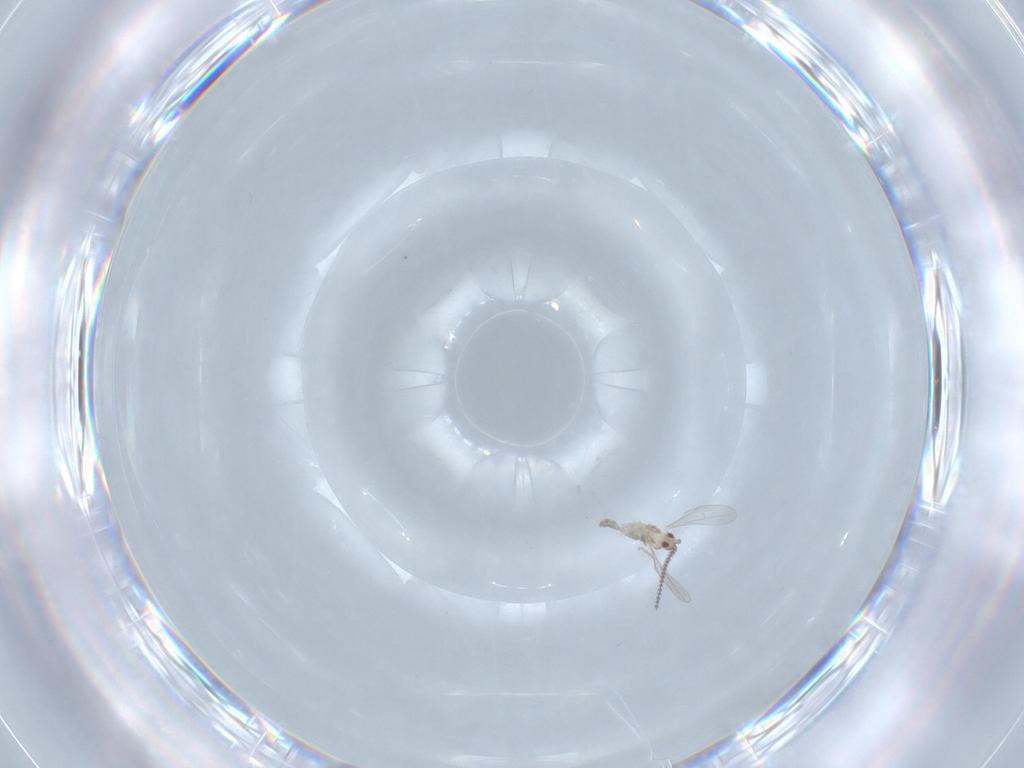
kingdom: Animalia
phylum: Arthropoda
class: Insecta
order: Diptera
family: Cecidomyiidae
